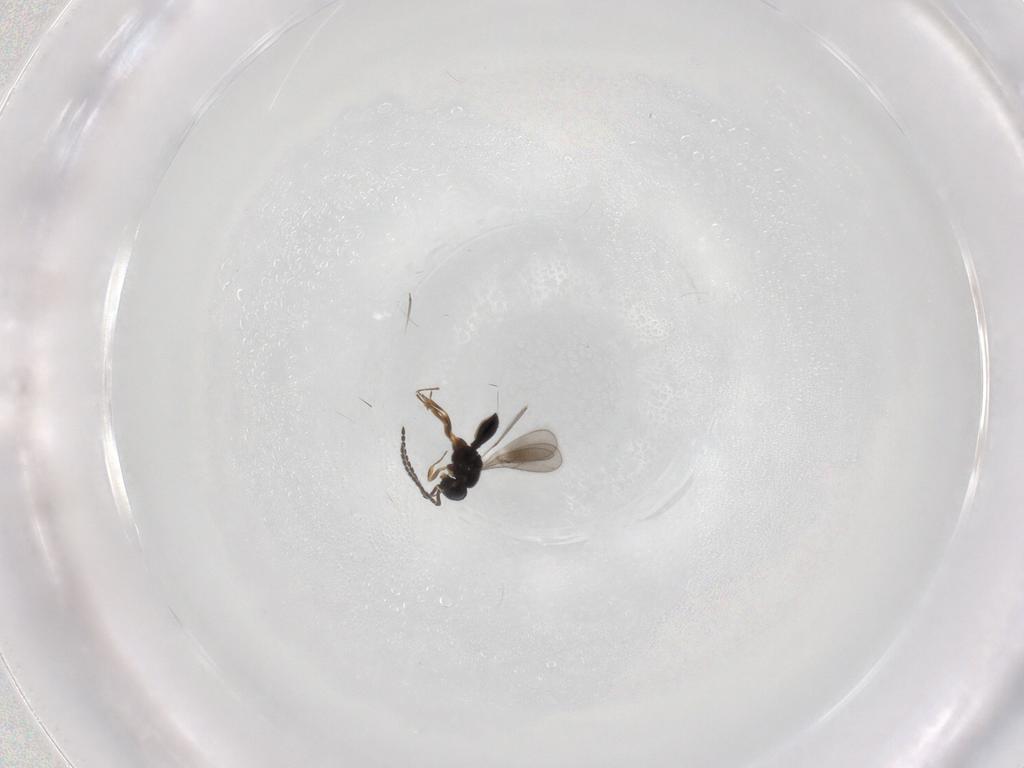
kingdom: Animalia
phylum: Arthropoda
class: Insecta
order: Hymenoptera
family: Scelionidae
